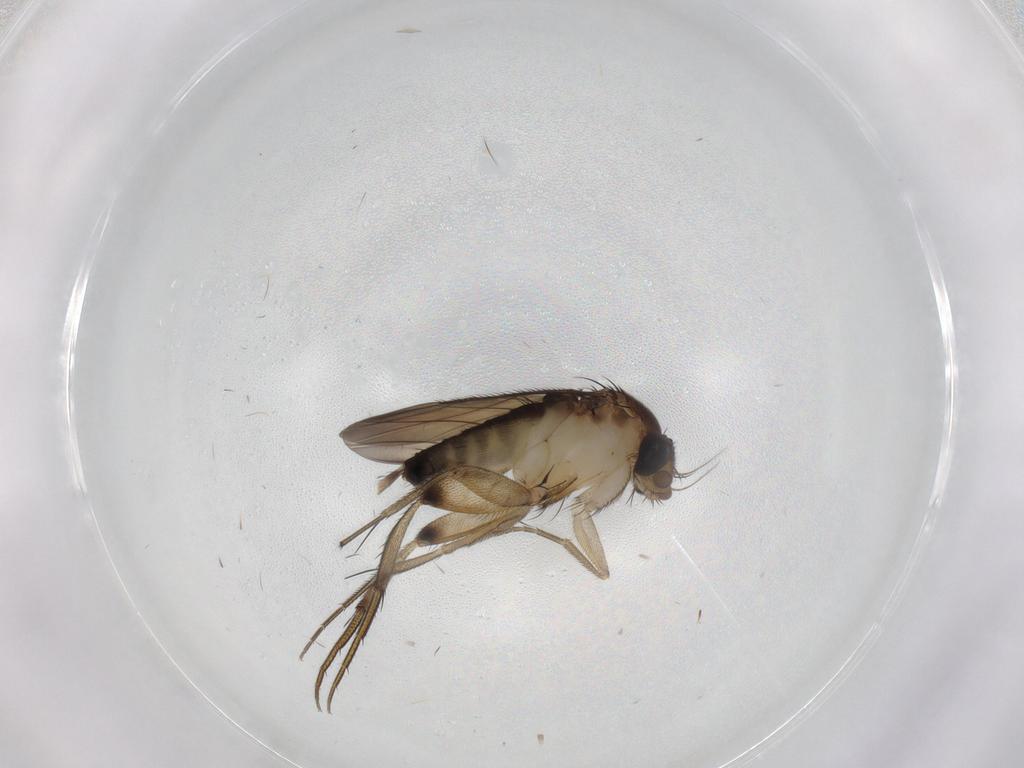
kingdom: Animalia
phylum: Arthropoda
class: Insecta
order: Diptera
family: Phoridae
